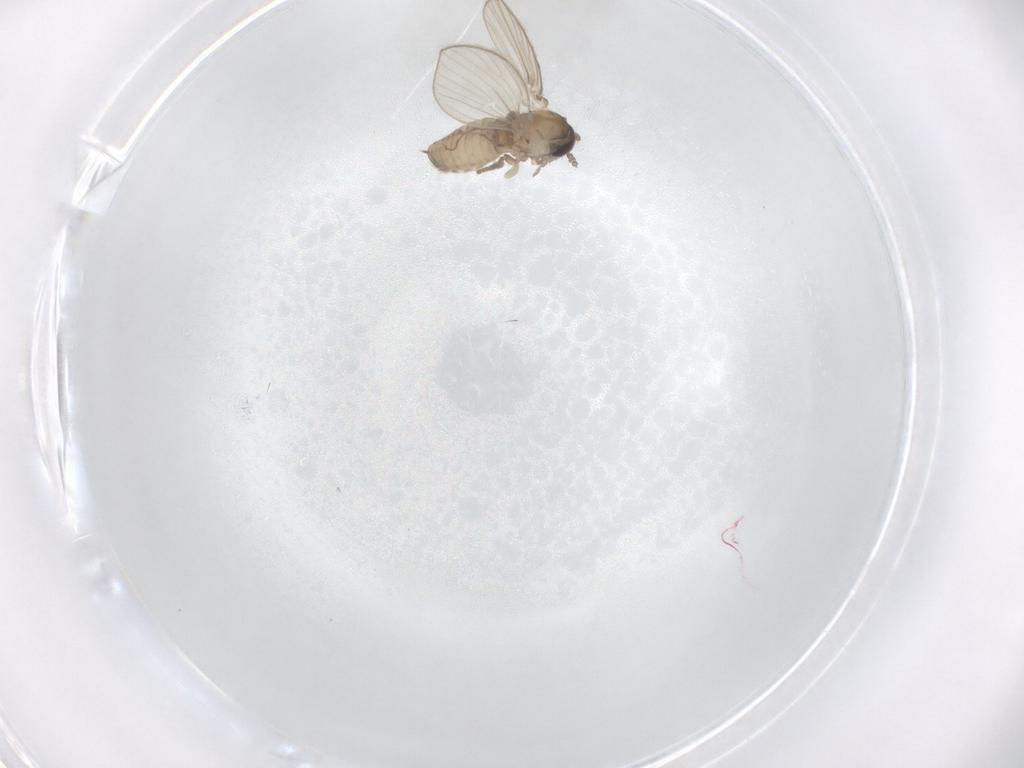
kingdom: Animalia
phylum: Arthropoda
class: Insecta
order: Diptera
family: Psychodidae
